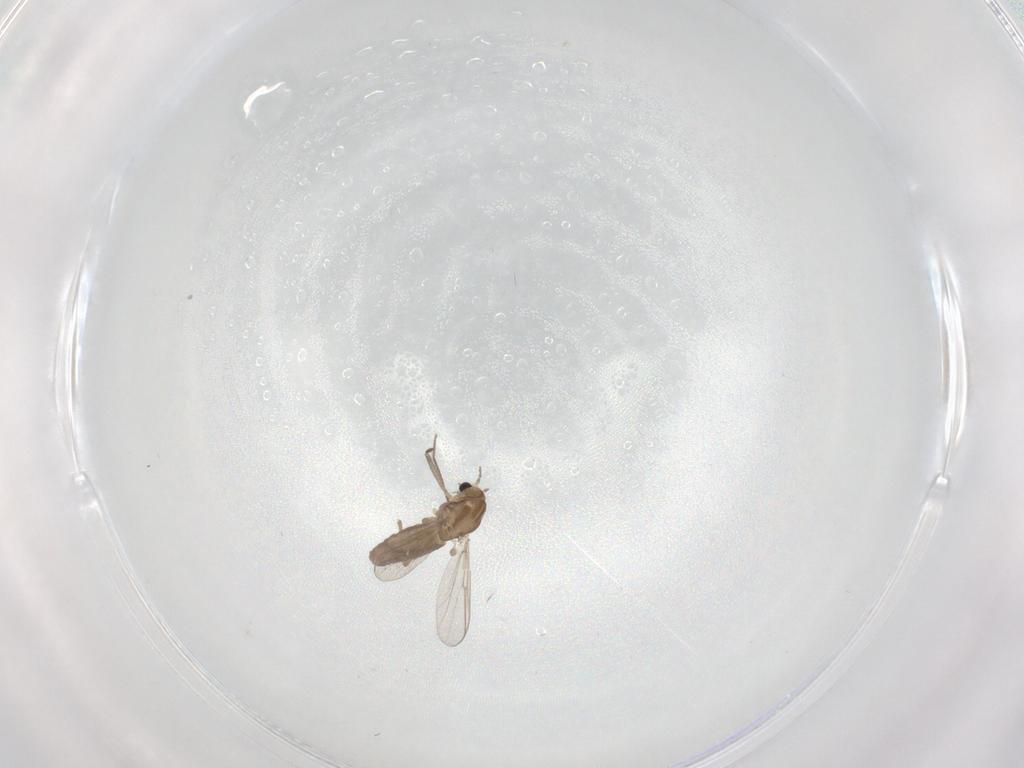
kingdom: Animalia
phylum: Arthropoda
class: Insecta
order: Diptera
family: Chironomidae
